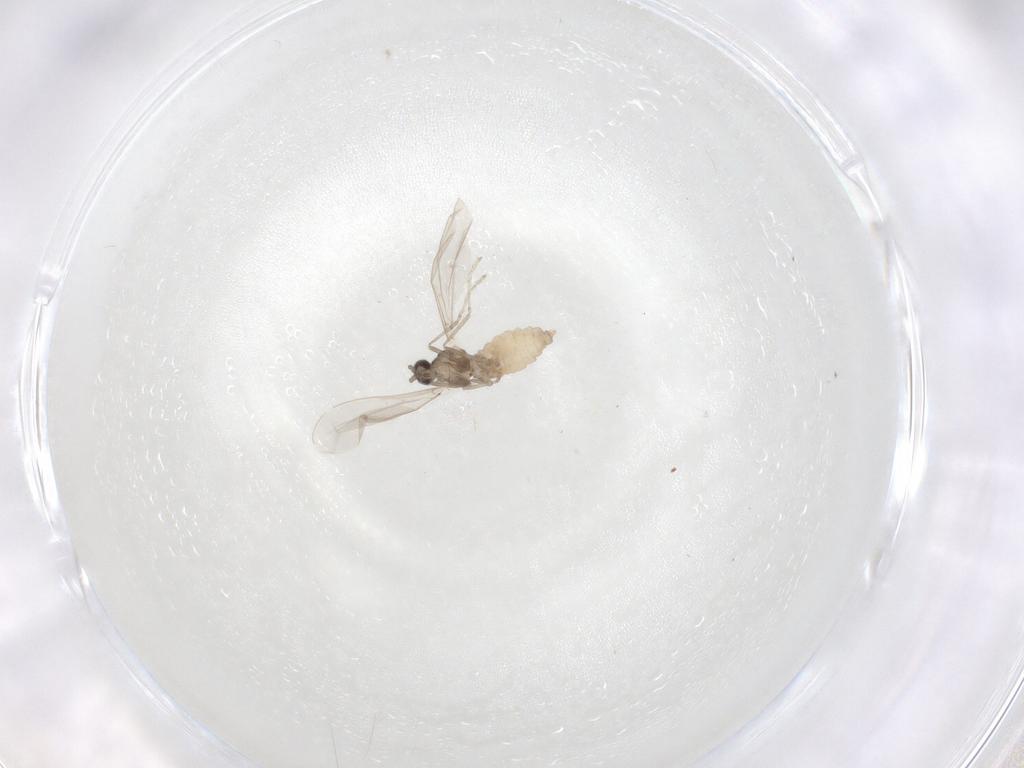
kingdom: Animalia
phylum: Arthropoda
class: Insecta
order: Diptera
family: Cecidomyiidae
